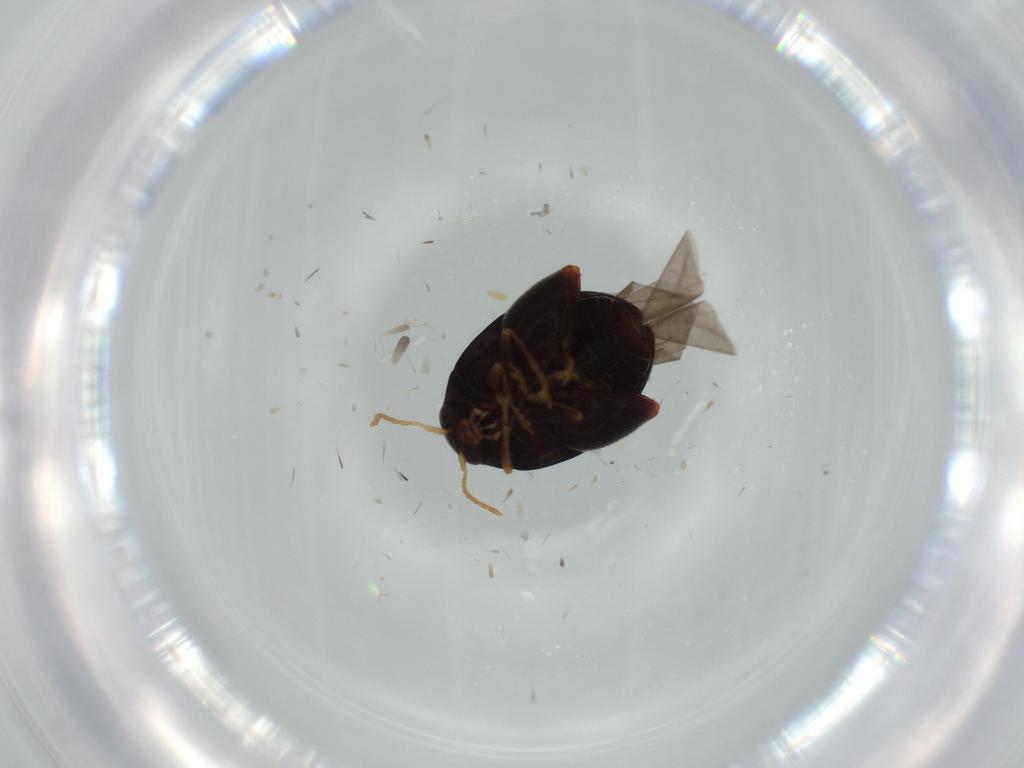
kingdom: Animalia
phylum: Arthropoda
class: Insecta
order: Coleoptera
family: Chrysomelidae
